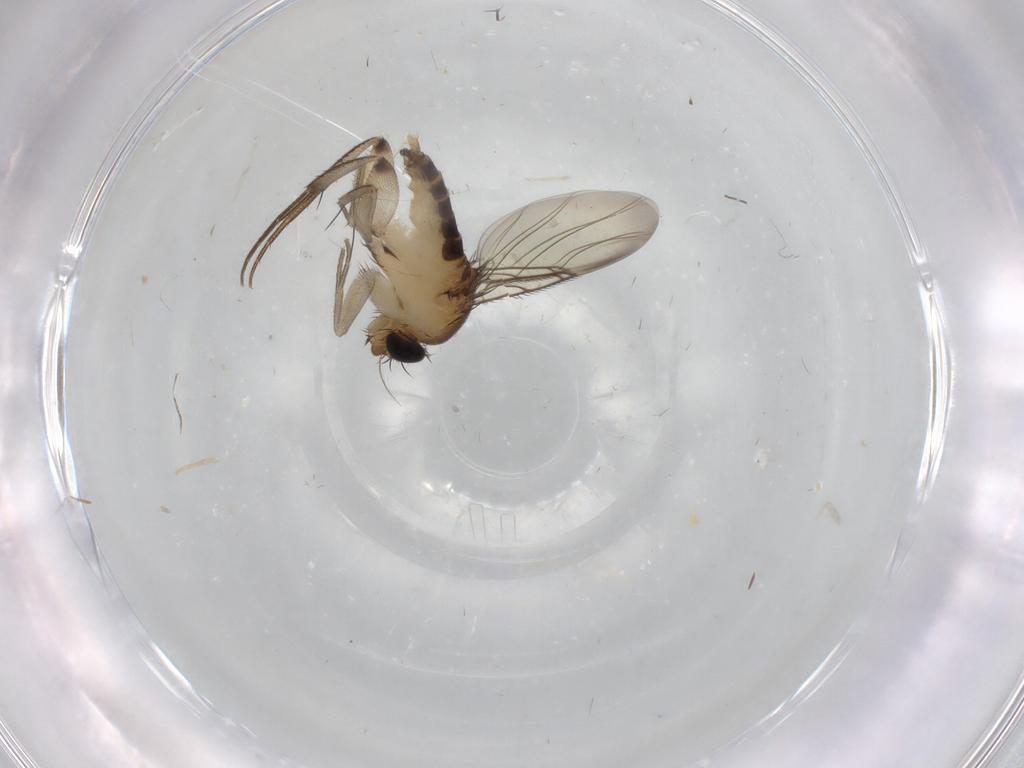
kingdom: Animalia
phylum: Arthropoda
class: Insecta
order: Diptera
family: Phoridae
